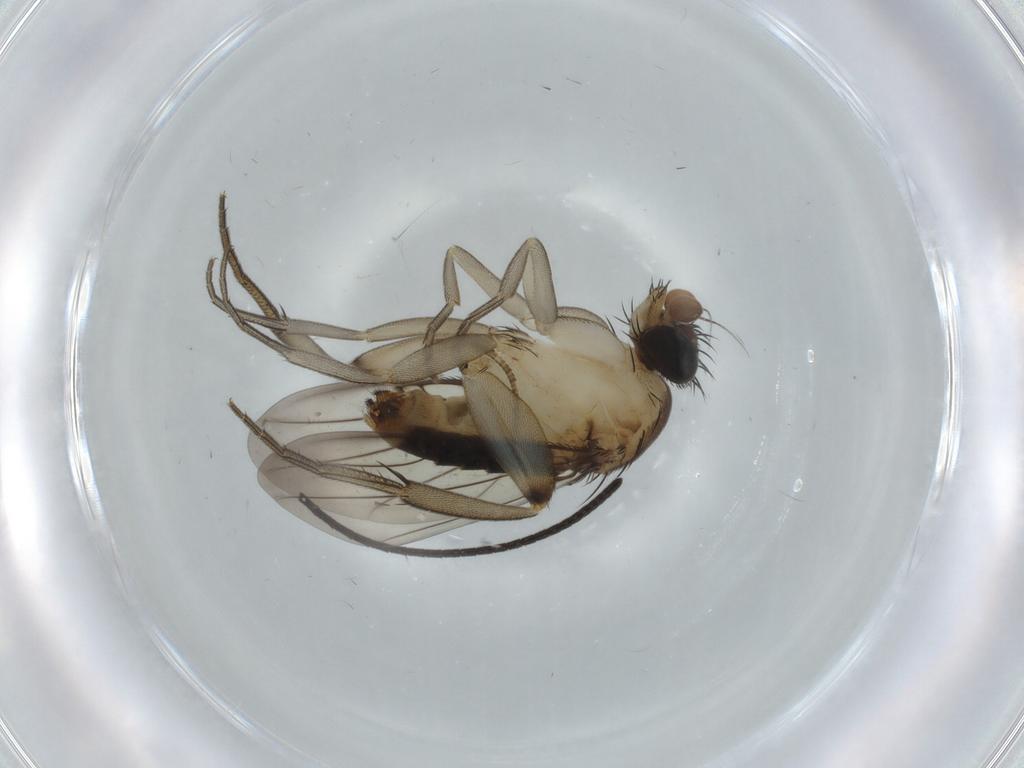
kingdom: Animalia
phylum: Arthropoda
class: Insecta
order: Diptera
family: Phoridae
